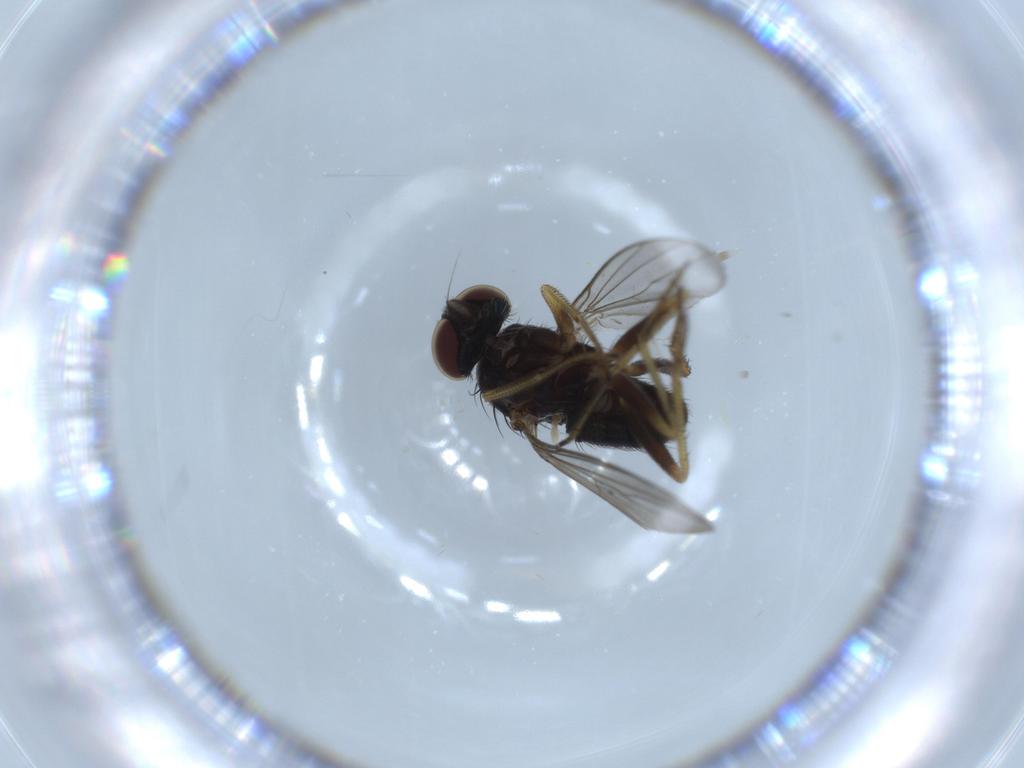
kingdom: Animalia
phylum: Arthropoda
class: Insecta
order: Diptera
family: Dolichopodidae
